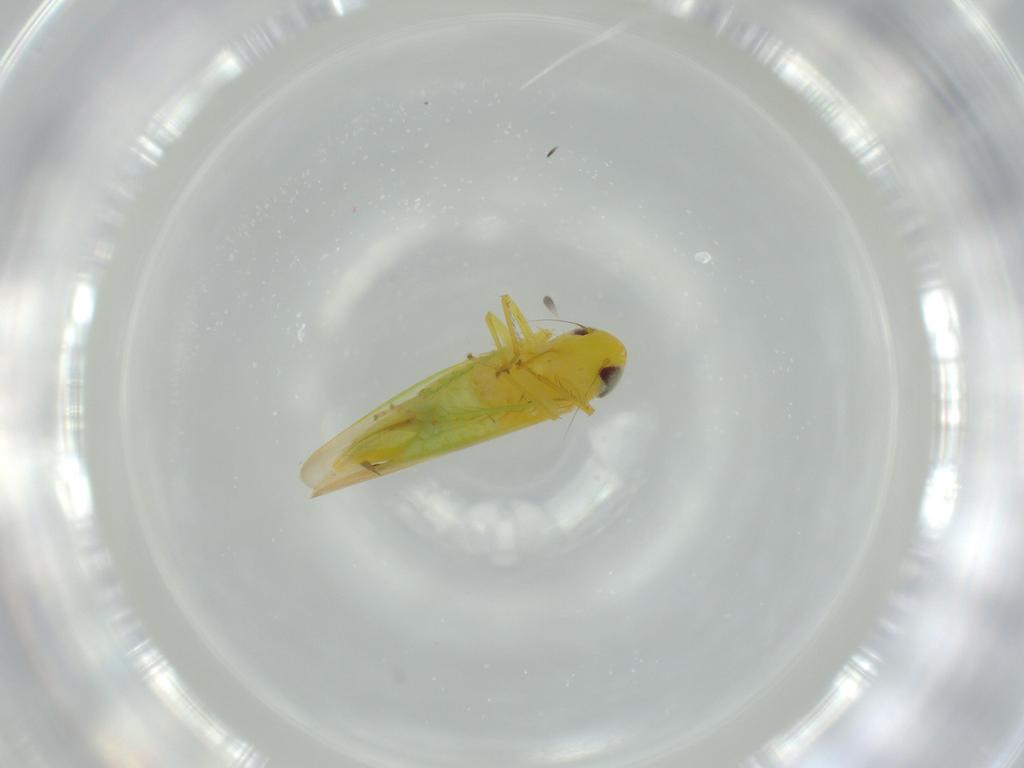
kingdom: Animalia
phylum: Arthropoda
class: Insecta
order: Hemiptera
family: Cicadellidae
